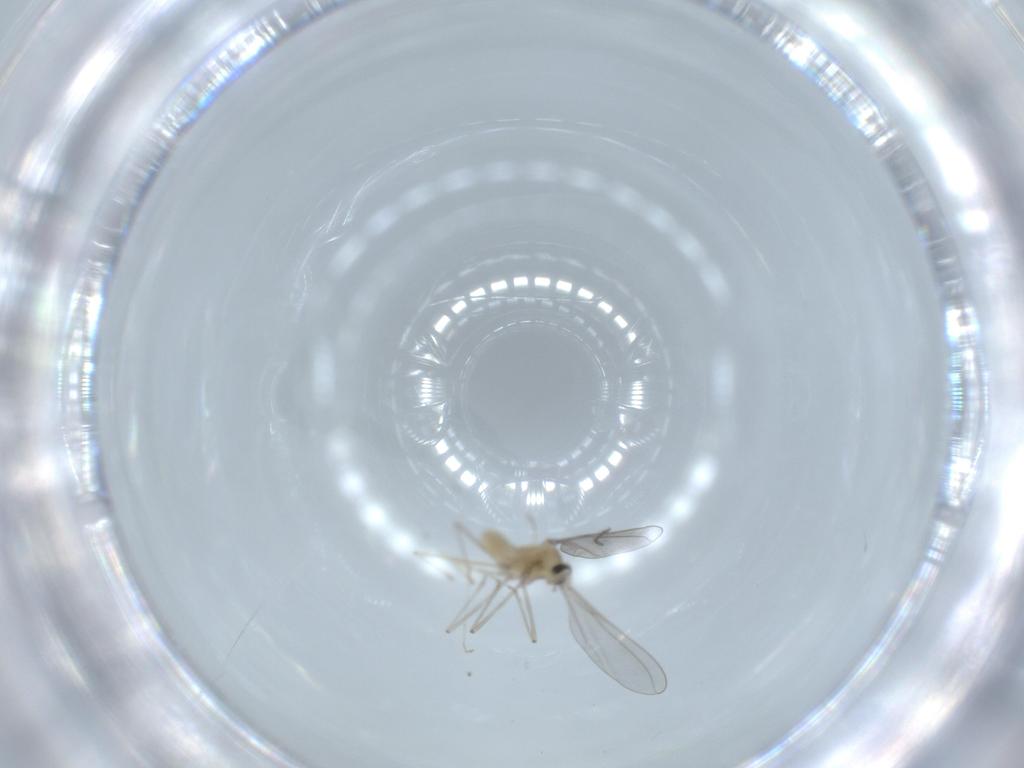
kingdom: Animalia
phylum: Arthropoda
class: Insecta
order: Diptera
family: Cecidomyiidae
